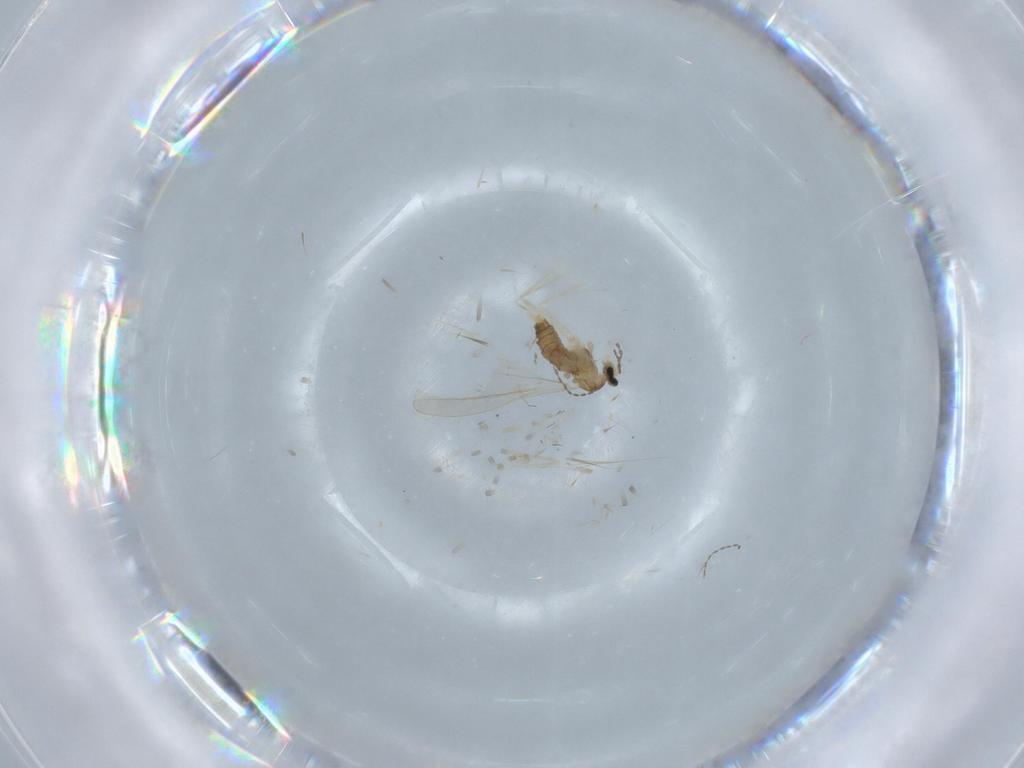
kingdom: Animalia
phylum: Arthropoda
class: Insecta
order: Diptera
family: Cecidomyiidae
